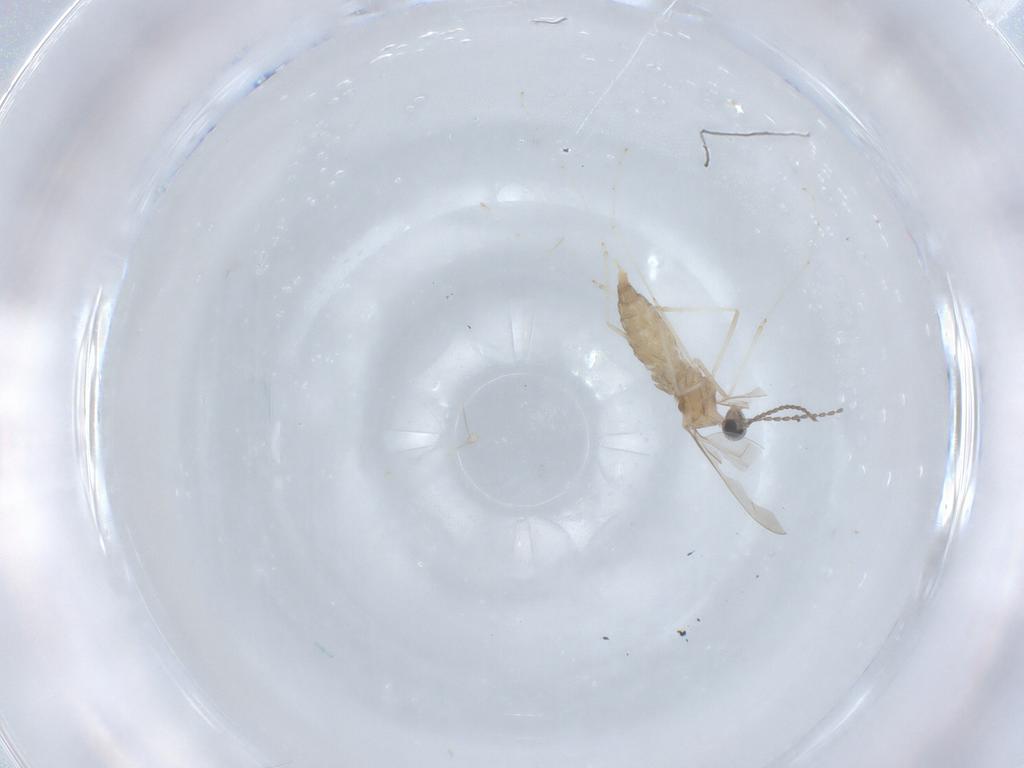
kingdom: Animalia
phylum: Arthropoda
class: Insecta
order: Diptera
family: Cecidomyiidae
